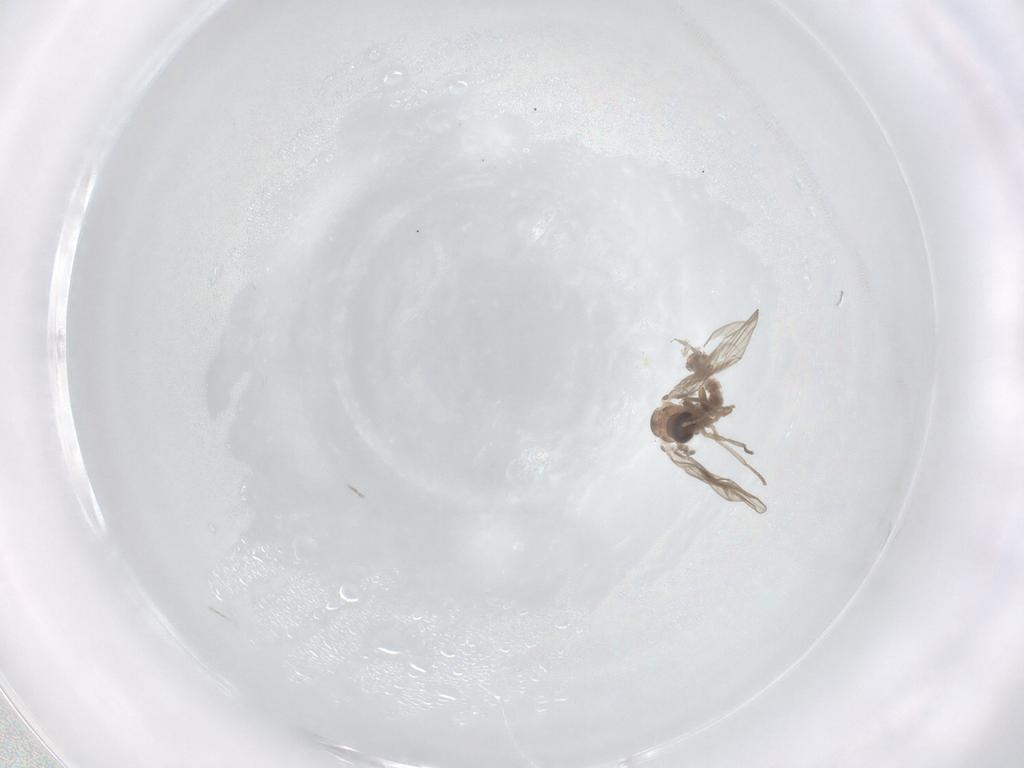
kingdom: Animalia
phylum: Arthropoda
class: Insecta
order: Diptera
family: Psychodidae
